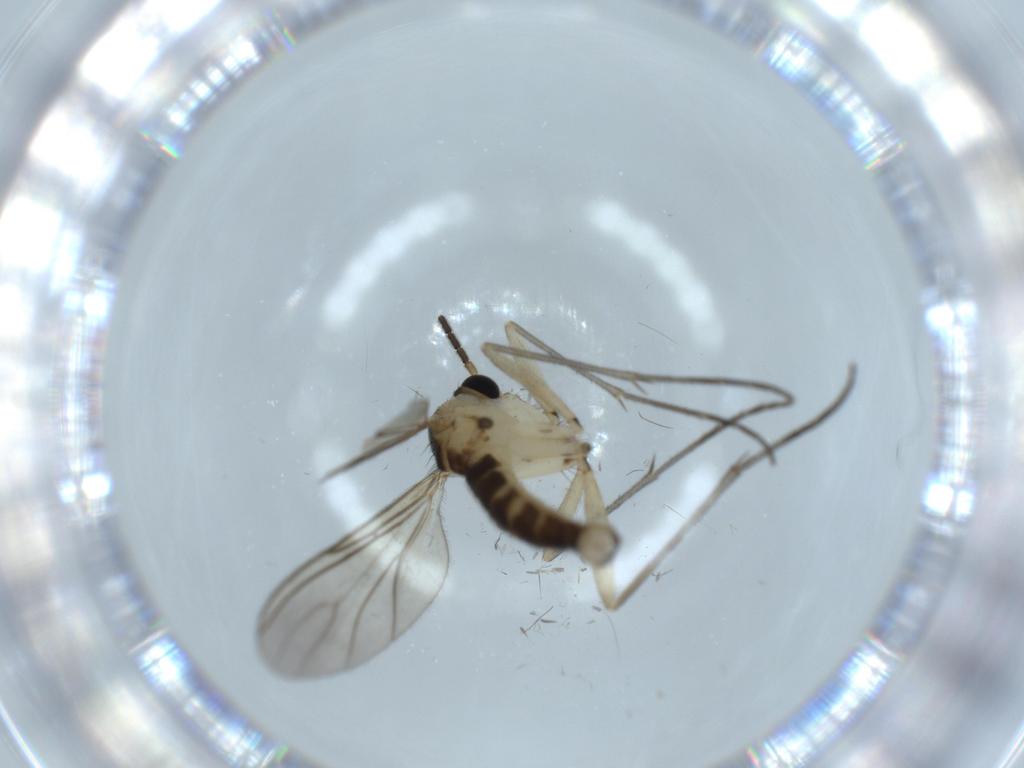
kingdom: Animalia
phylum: Arthropoda
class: Insecta
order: Diptera
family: Sciaridae
